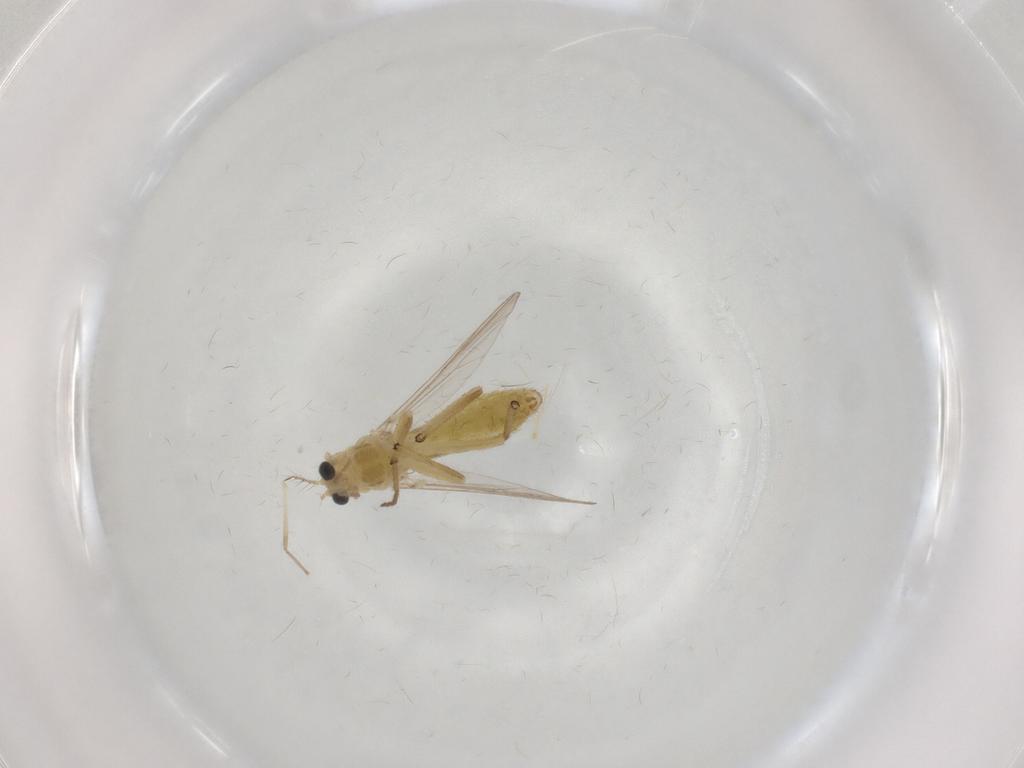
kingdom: Animalia
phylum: Arthropoda
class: Insecta
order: Diptera
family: Chironomidae
